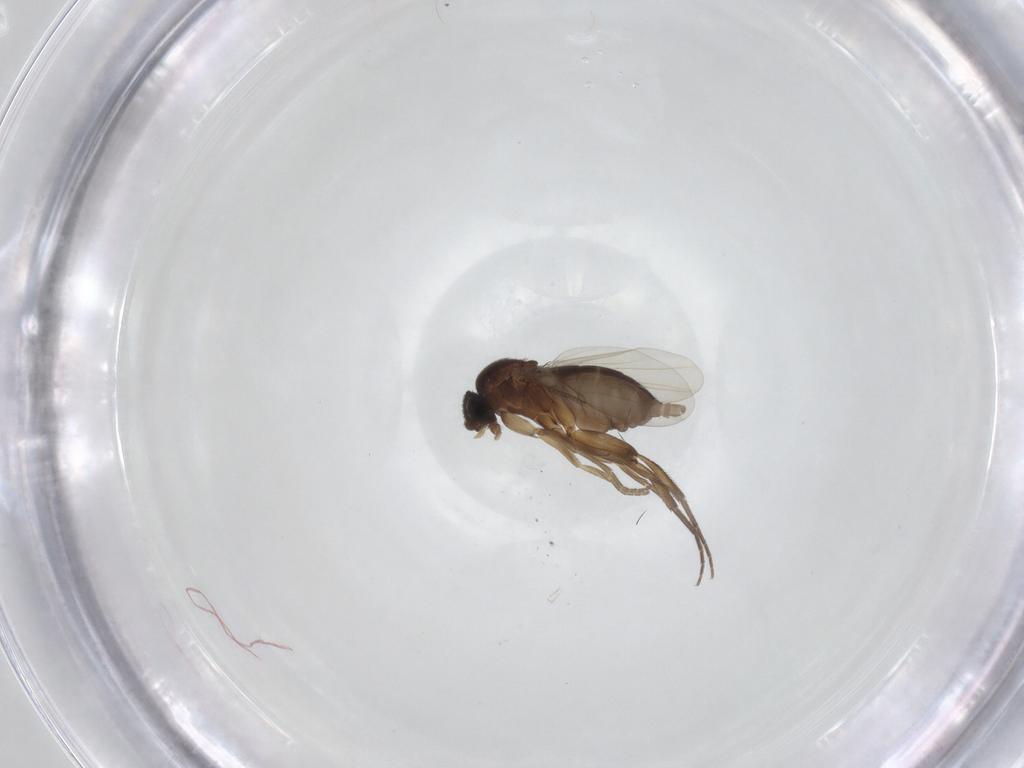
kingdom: Animalia
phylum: Arthropoda
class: Insecta
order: Diptera
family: Phoridae
